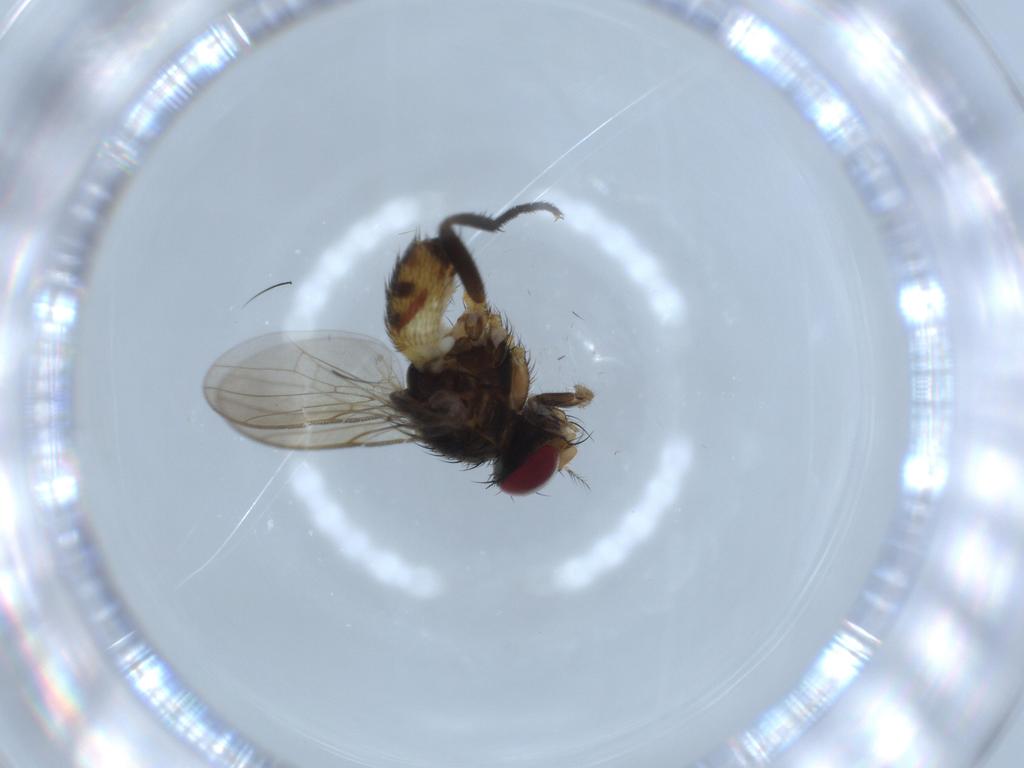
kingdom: Animalia
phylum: Arthropoda
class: Insecta
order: Diptera
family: Anthomyiidae
